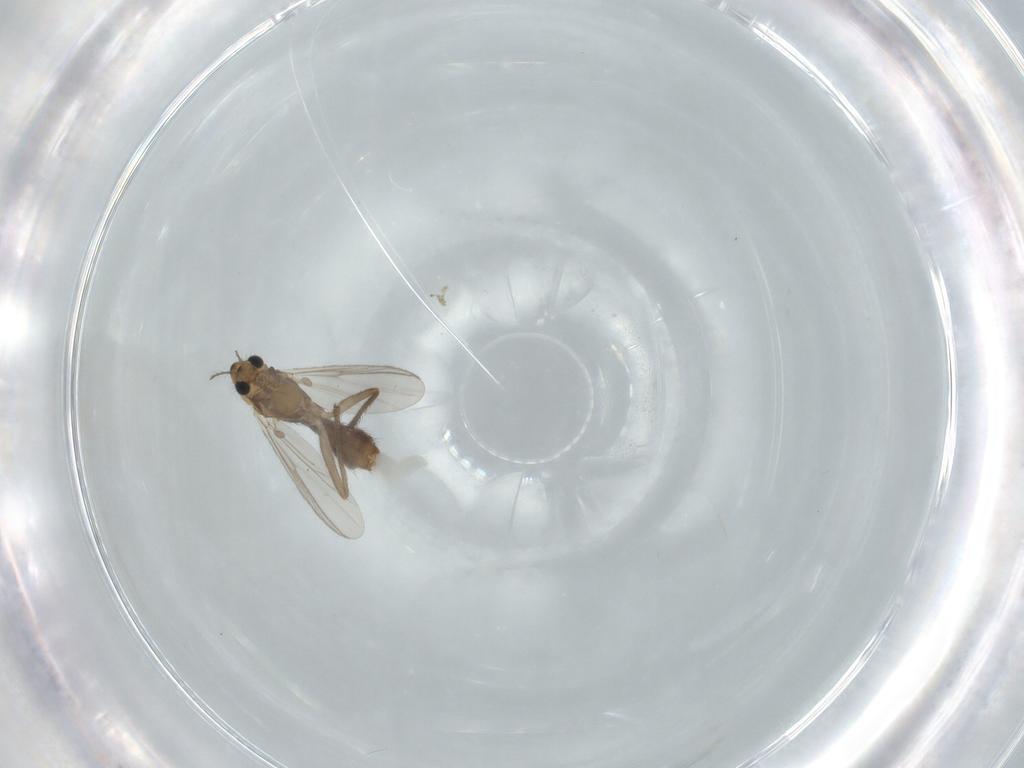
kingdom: Animalia
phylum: Arthropoda
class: Insecta
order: Diptera
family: Chironomidae
